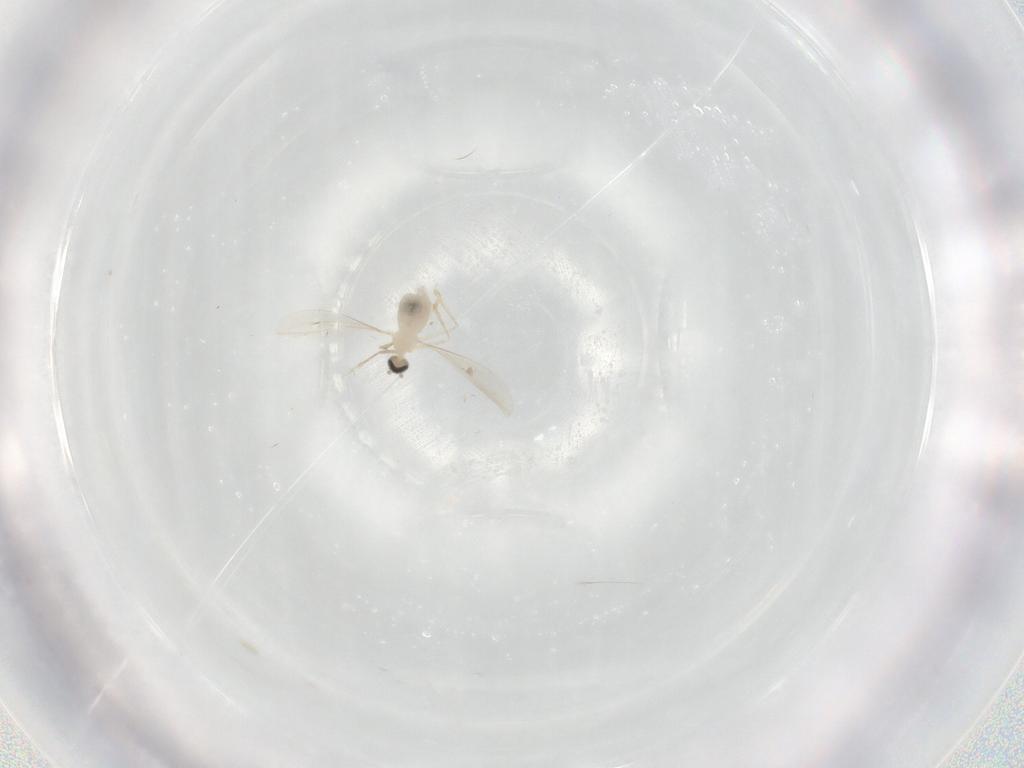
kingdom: Animalia
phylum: Arthropoda
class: Insecta
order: Diptera
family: Cecidomyiidae
